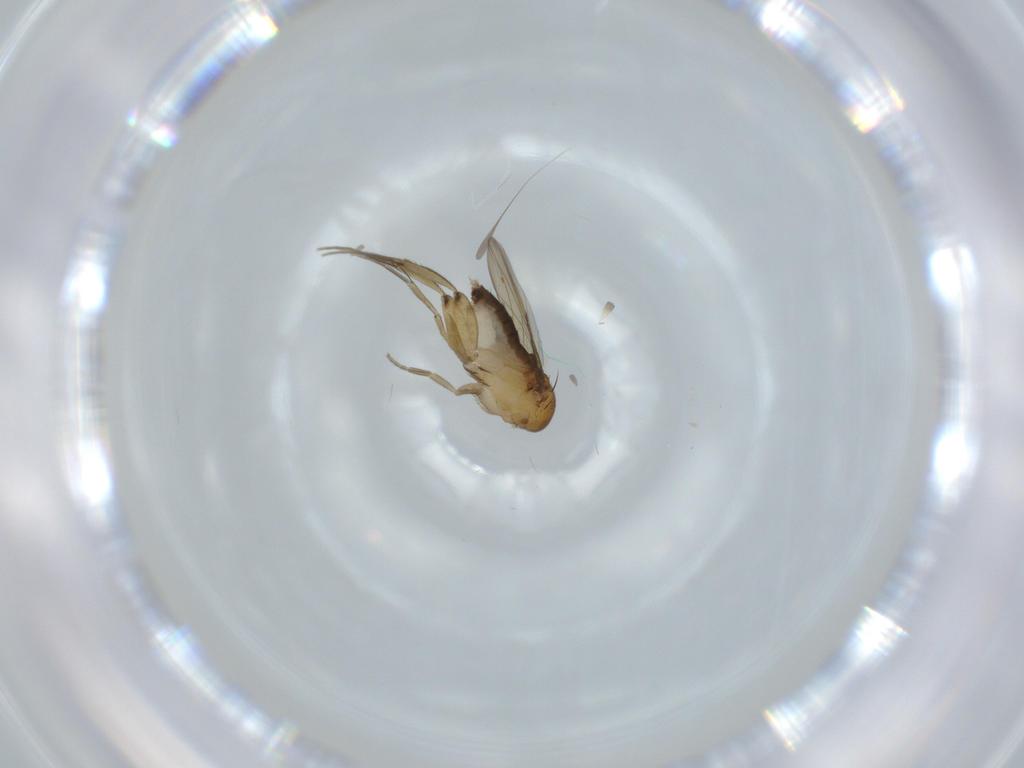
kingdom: Animalia
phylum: Arthropoda
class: Insecta
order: Diptera
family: Phoridae
